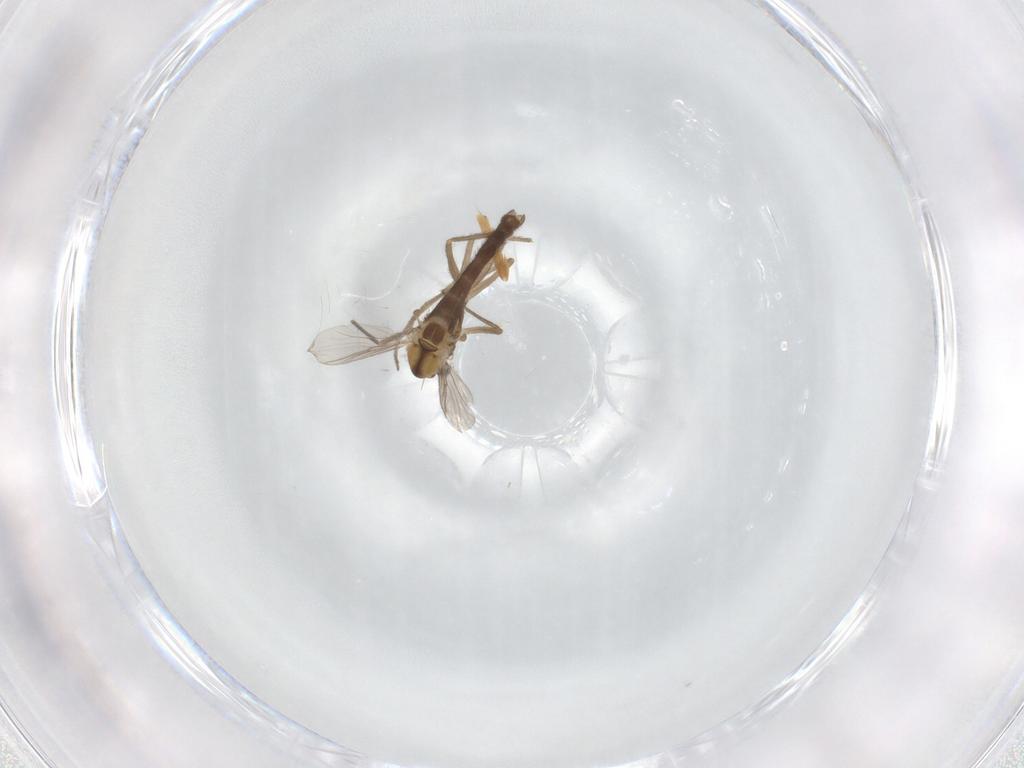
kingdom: Animalia
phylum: Arthropoda
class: Insecta
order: Diptera
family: Chironomidae
